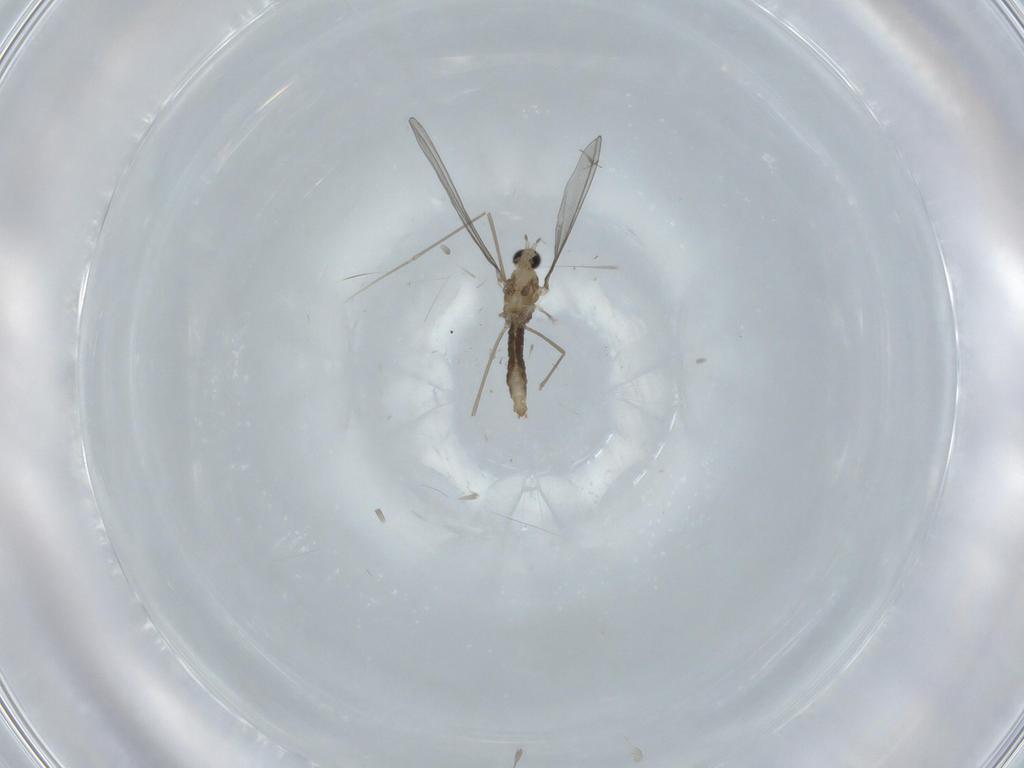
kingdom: Animalia
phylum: Arthropoda
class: Insecta
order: Diptera
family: Cecidomyiidae
